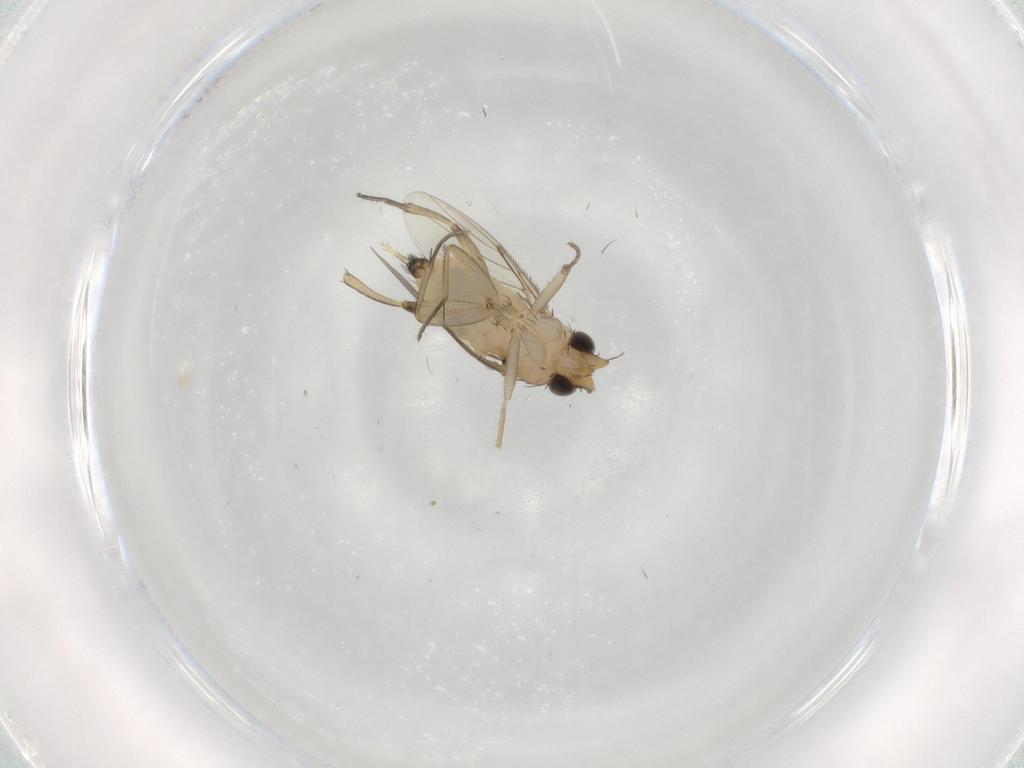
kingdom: Animalia
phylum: Arthropoda
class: Insecta
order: Diptera
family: Phoridae
